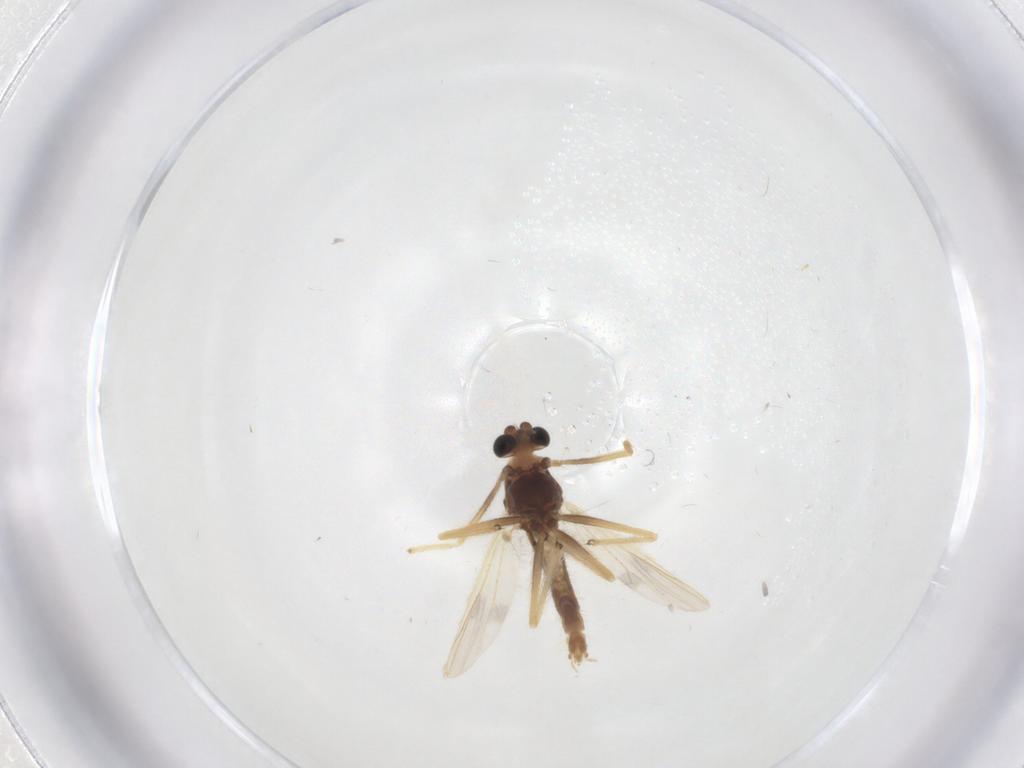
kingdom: Animalia
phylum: Arthropoda
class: Insecta
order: Diptera
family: Chironomidae
